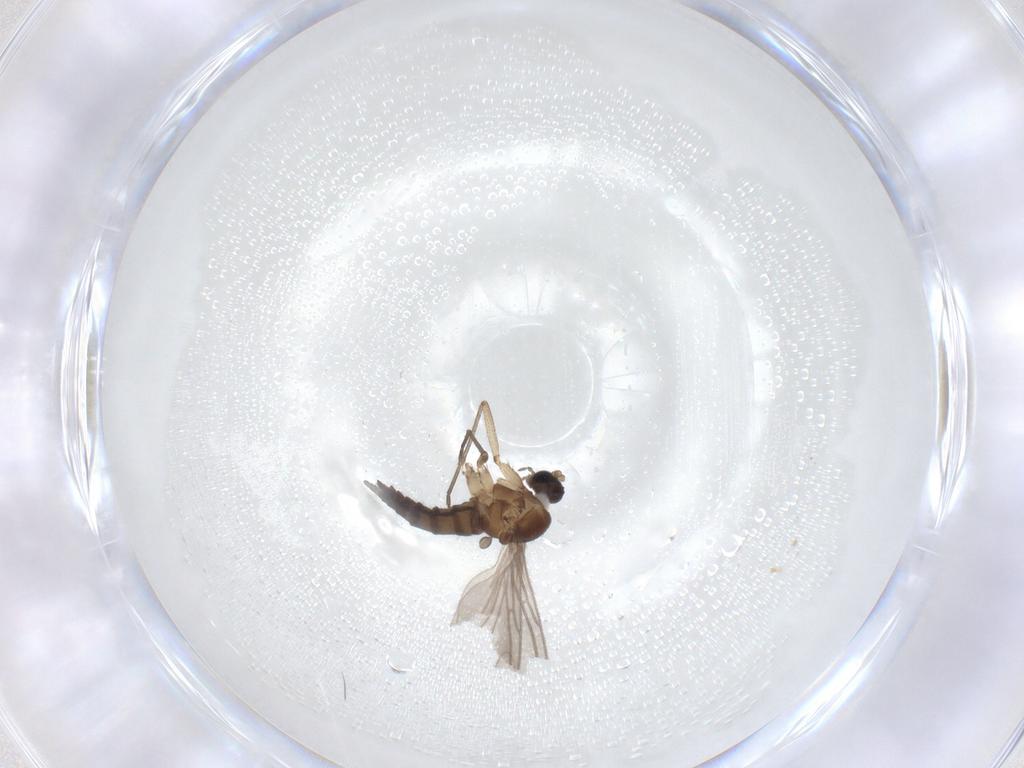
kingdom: Animalia
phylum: Arthropoda
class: Insecta
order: Diptera
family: Sciaridae
